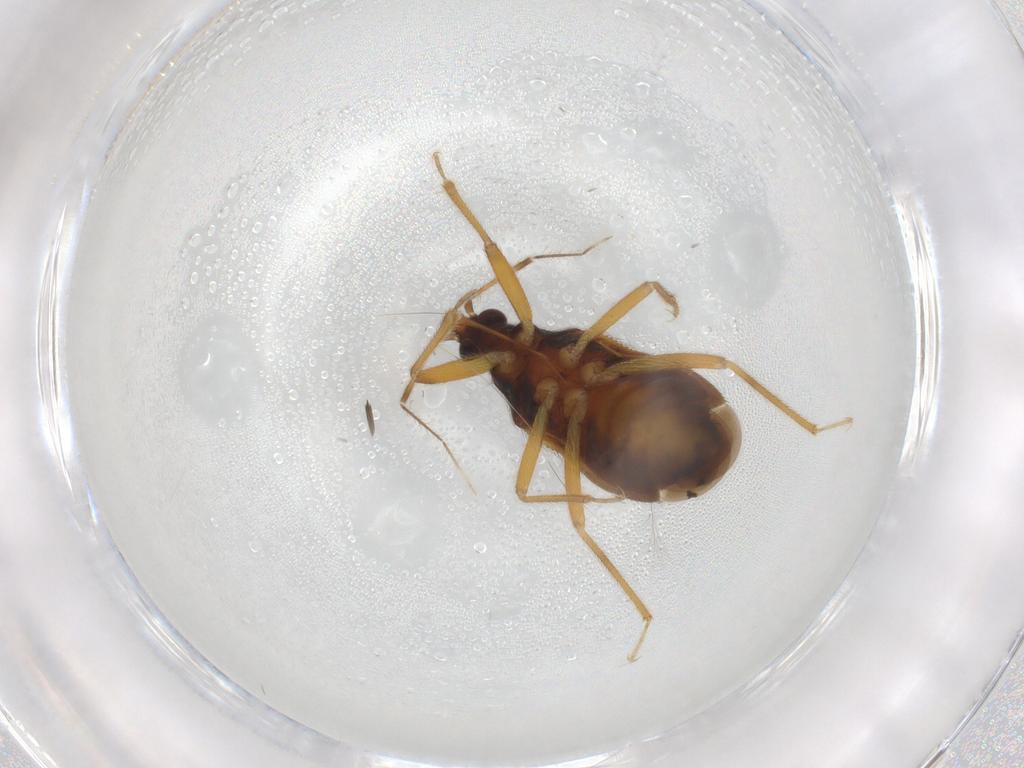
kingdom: Animalia
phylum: Arthropoda
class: Insecta
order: Hemiptera
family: Anthocoridae
